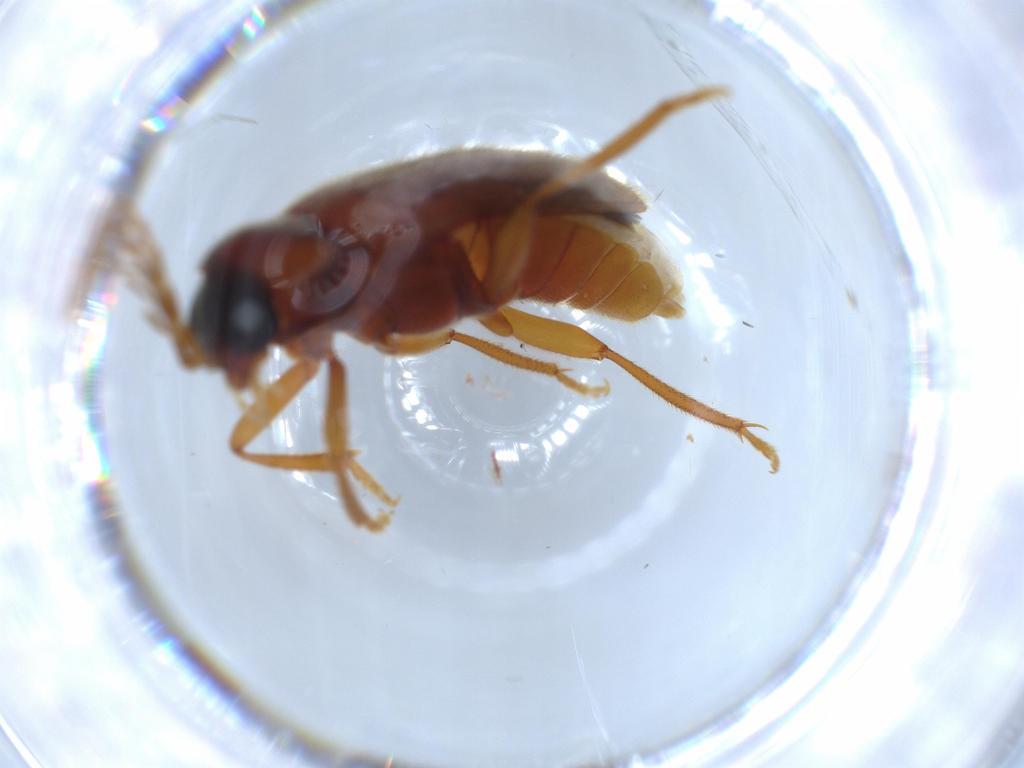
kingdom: Animalia
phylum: Arthropoda
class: Insecta
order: Coleoptera
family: Ptilodactylidae
